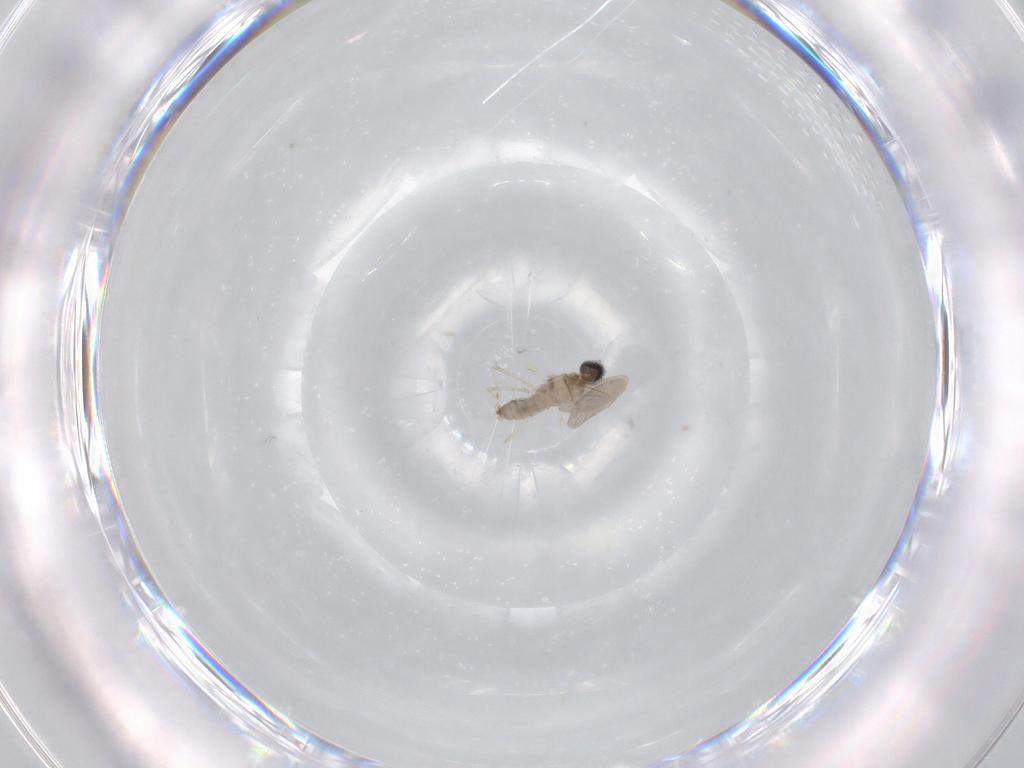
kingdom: Animalia
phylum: Arthropoda
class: Insecta
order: Diptera
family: Cecidomyiidae
